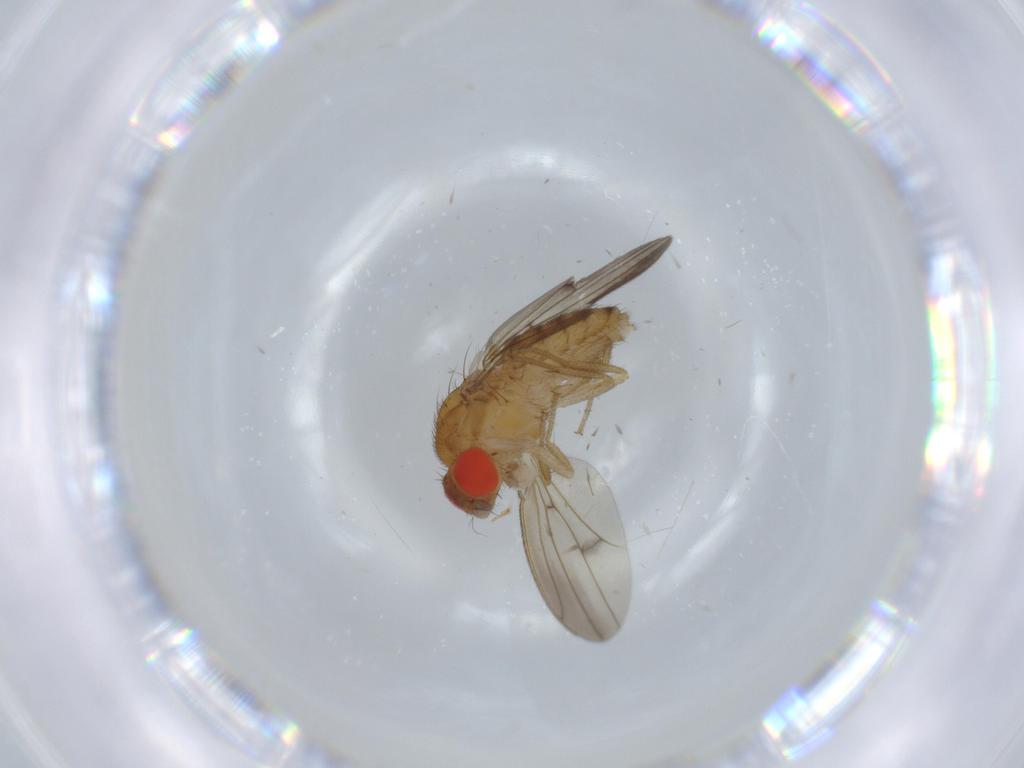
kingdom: Animalia
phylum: Arthropoda
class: Insecta
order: Diptera
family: Drosophilidae
